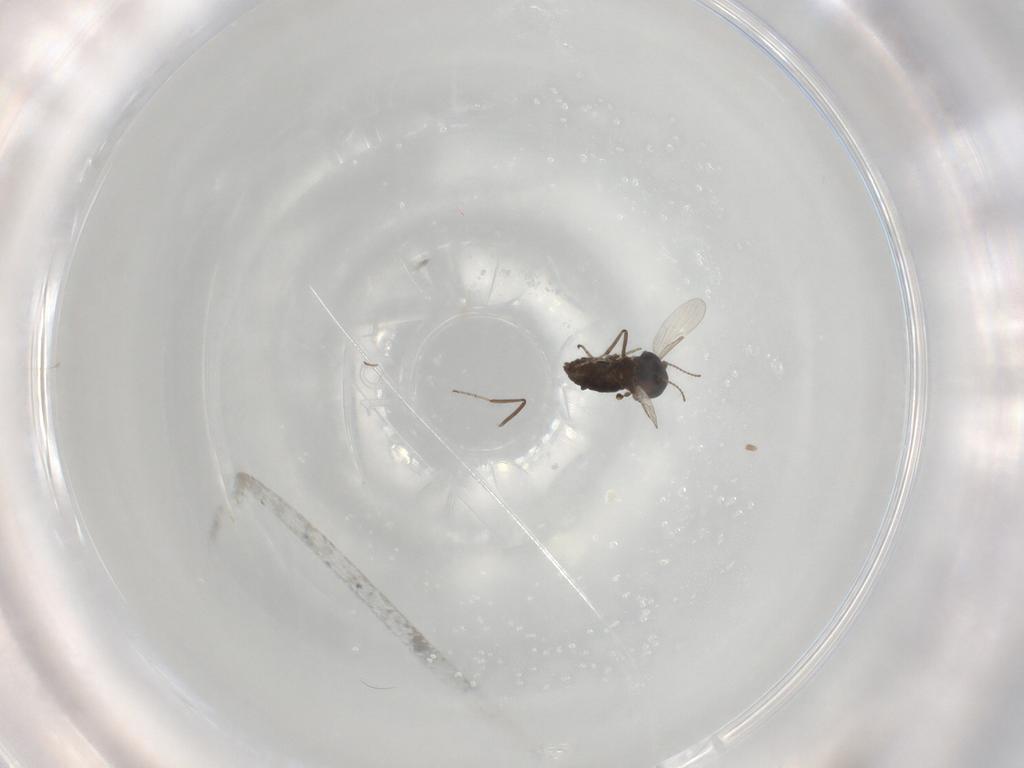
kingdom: Animalia
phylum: Arthropoda
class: Insecta
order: Diptera
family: Ceratopogonidae
